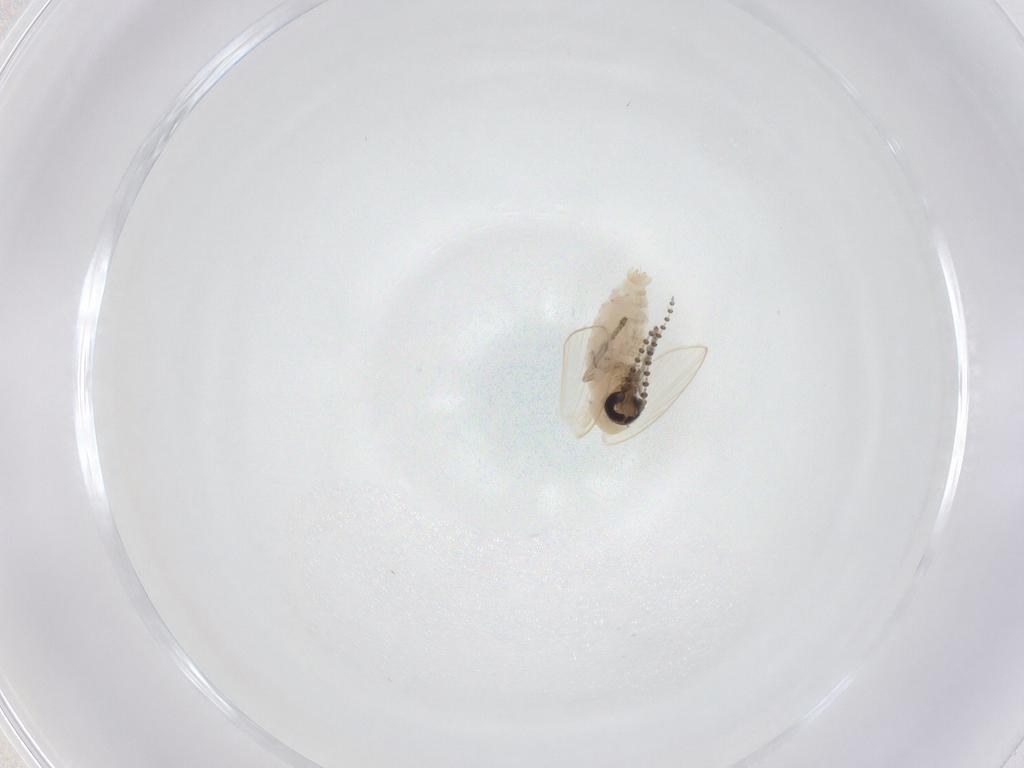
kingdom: Animalia
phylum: Arthropoda
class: Insecta
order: Diptera
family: Psychodidae
